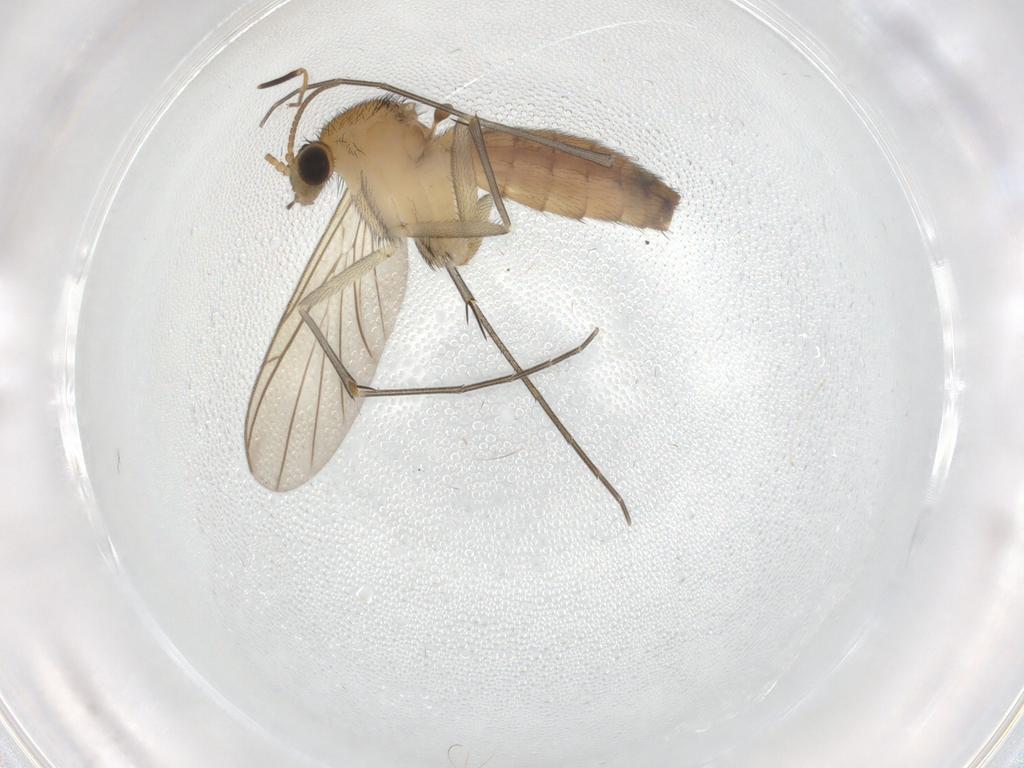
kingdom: Animalia
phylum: Arthropoda
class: Insecta
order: Diptera
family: Keroplatidae
